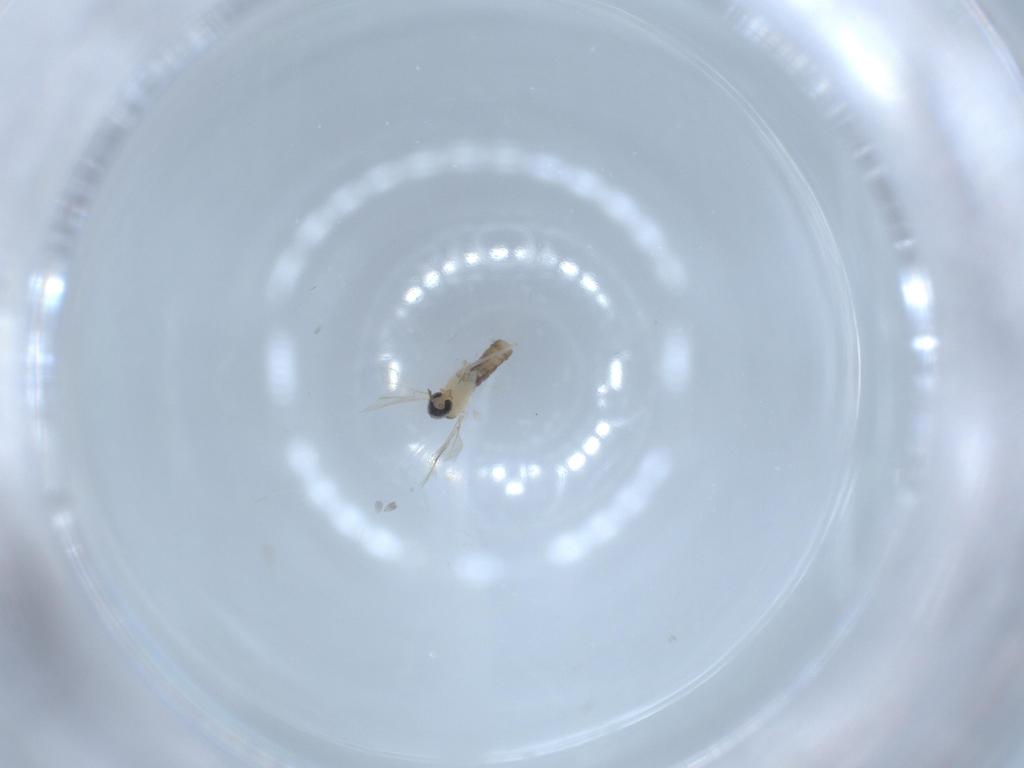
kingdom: Animalia
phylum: Arthropoda
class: Insecta
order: Diptera
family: Cecidomyiidae
